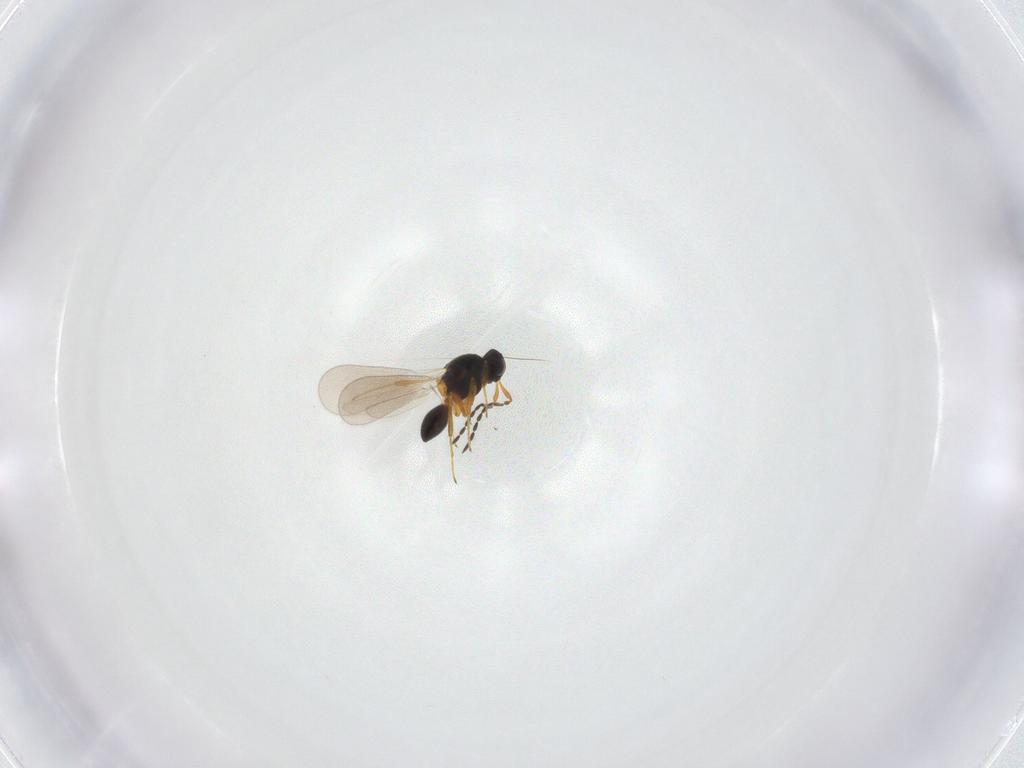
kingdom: Animalia
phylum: Arthropoda
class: Insecta
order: Hymenoptera
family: Platygastridae
